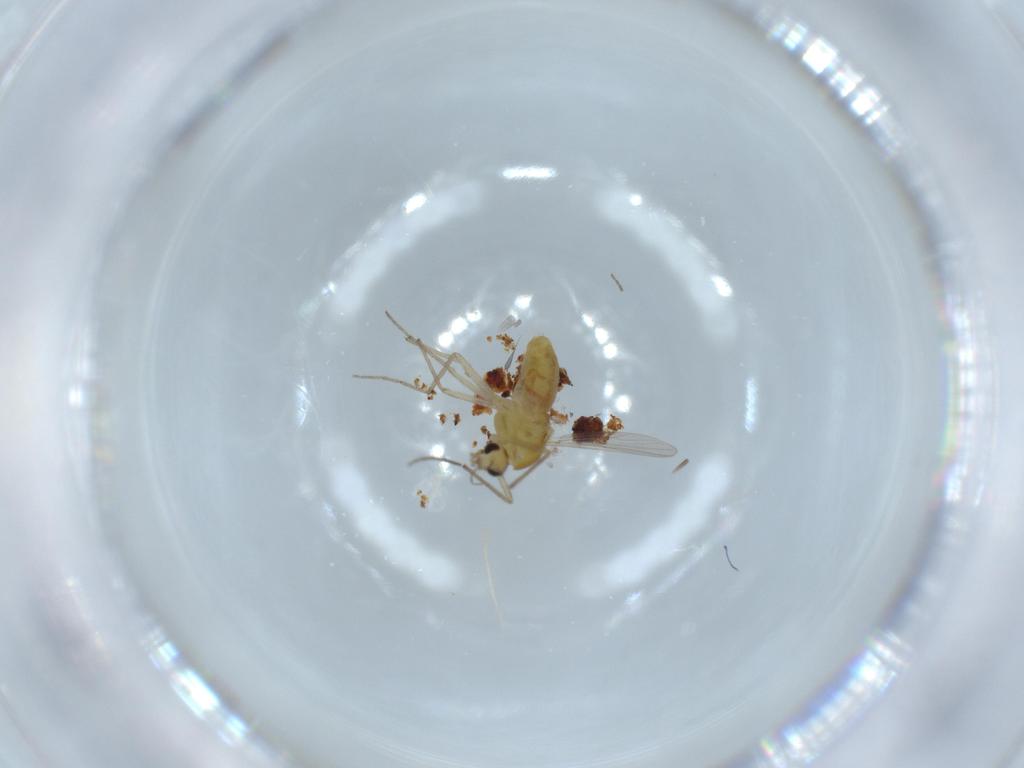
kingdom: Animalia
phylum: Arthropoda
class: Insecta
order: Diptera
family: Chironomidae
